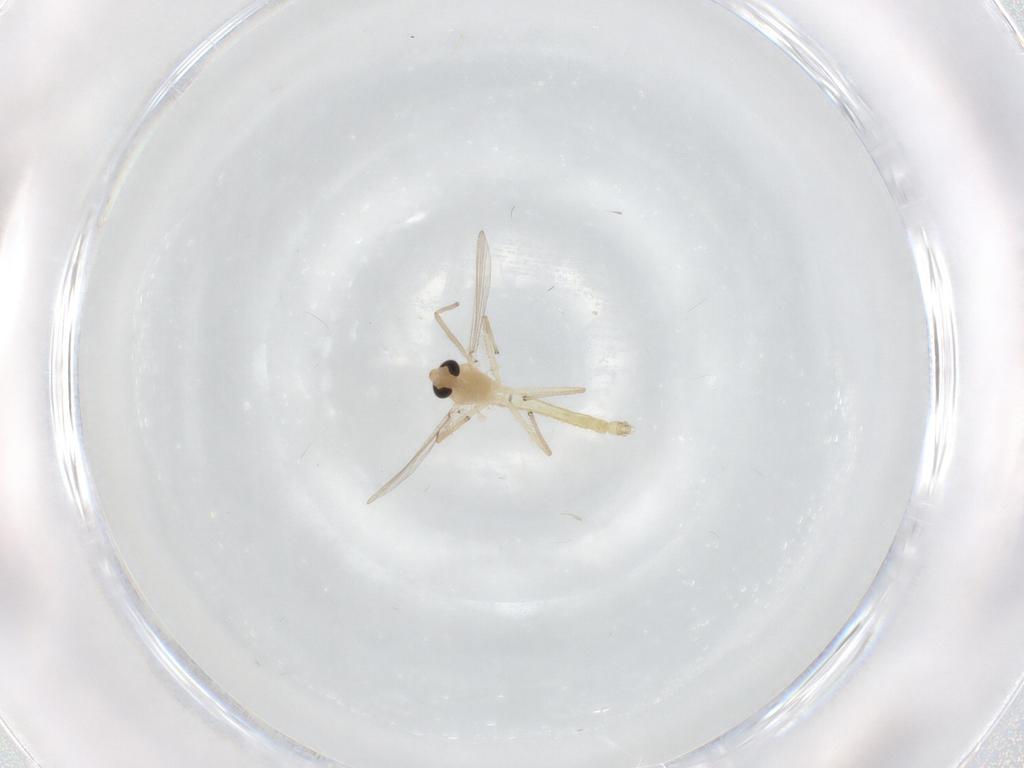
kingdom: Animalia
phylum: Arthropoda
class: Insecta
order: Diptera
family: Chironomidae
